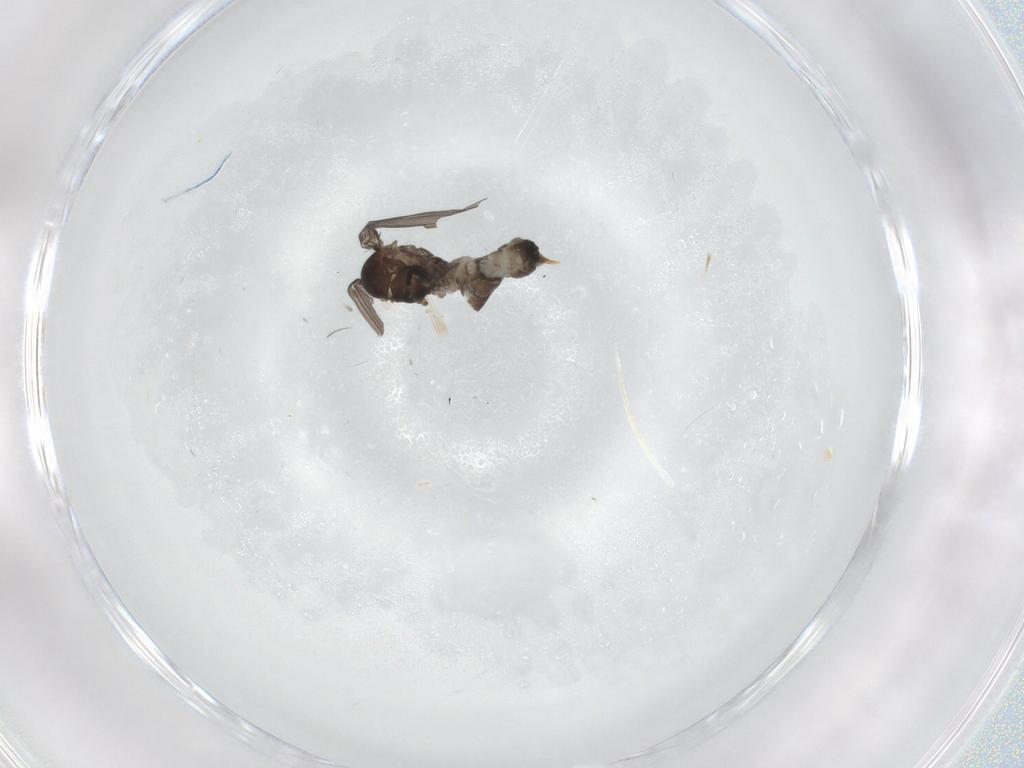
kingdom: Animalia
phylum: Arthropoda
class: Insecta
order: Diptera
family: Psychodidae
